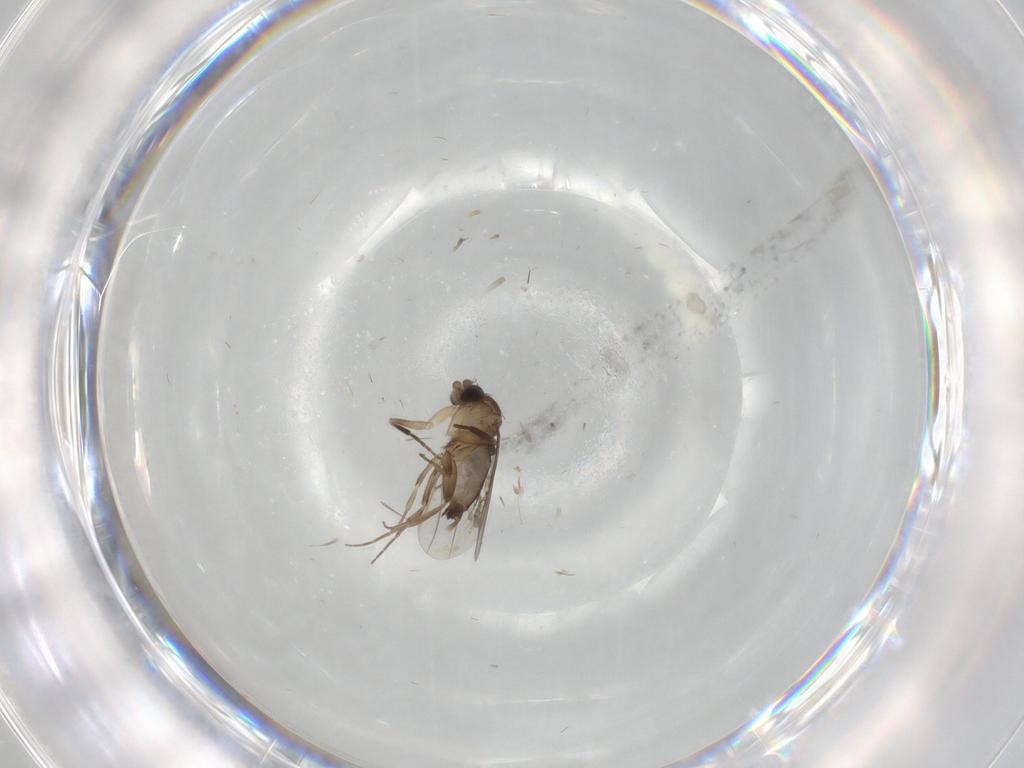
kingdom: Animalia
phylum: Arthropoda
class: Insecta
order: Diptera
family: Phoridae
